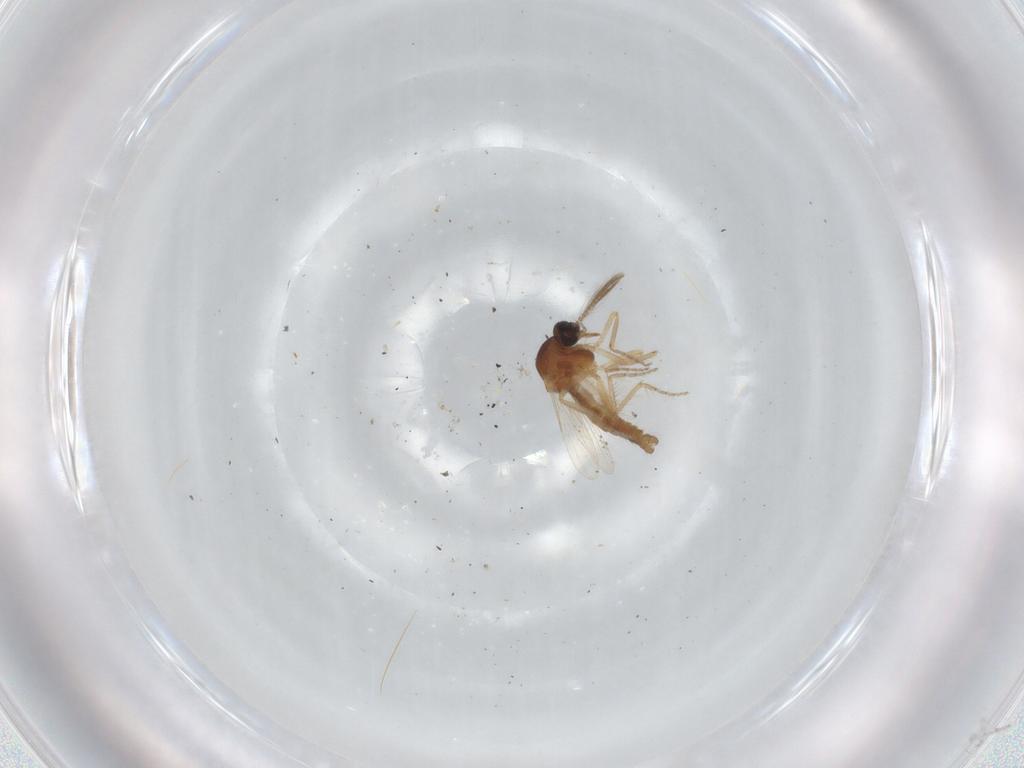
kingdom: Animalia
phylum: Arthropoda
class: Insecta
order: Diptera
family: Ceratopogonidae
